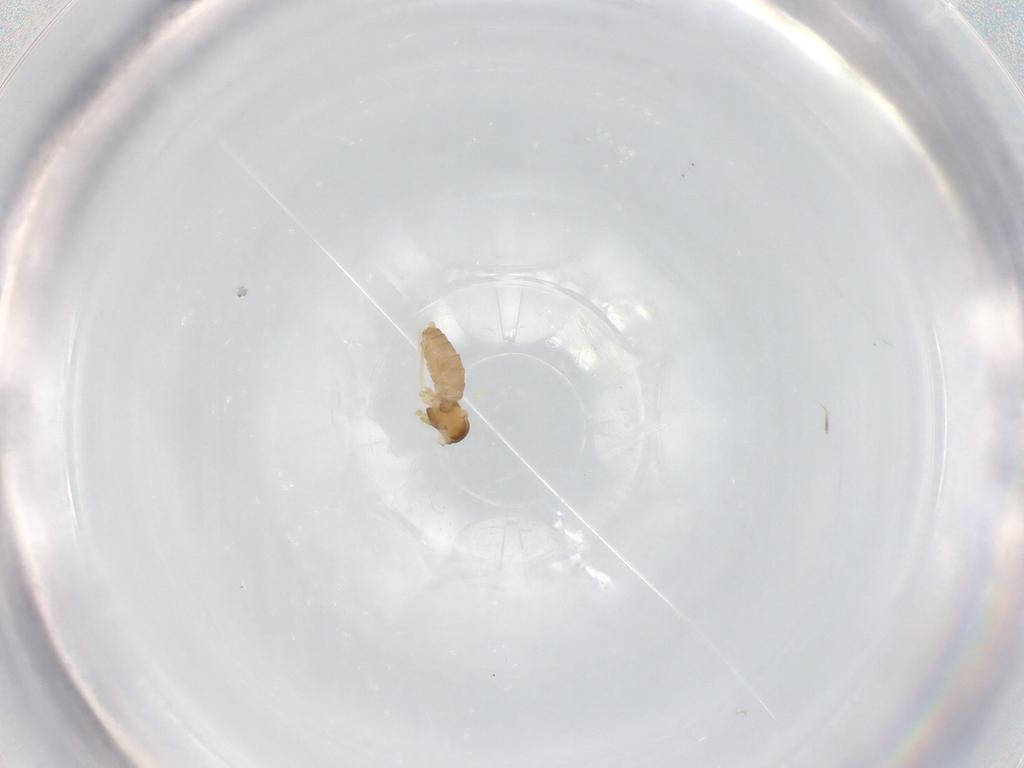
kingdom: Animalia
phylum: Arthropoda
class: Insecta
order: Diptera
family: Cecidomyiidae
